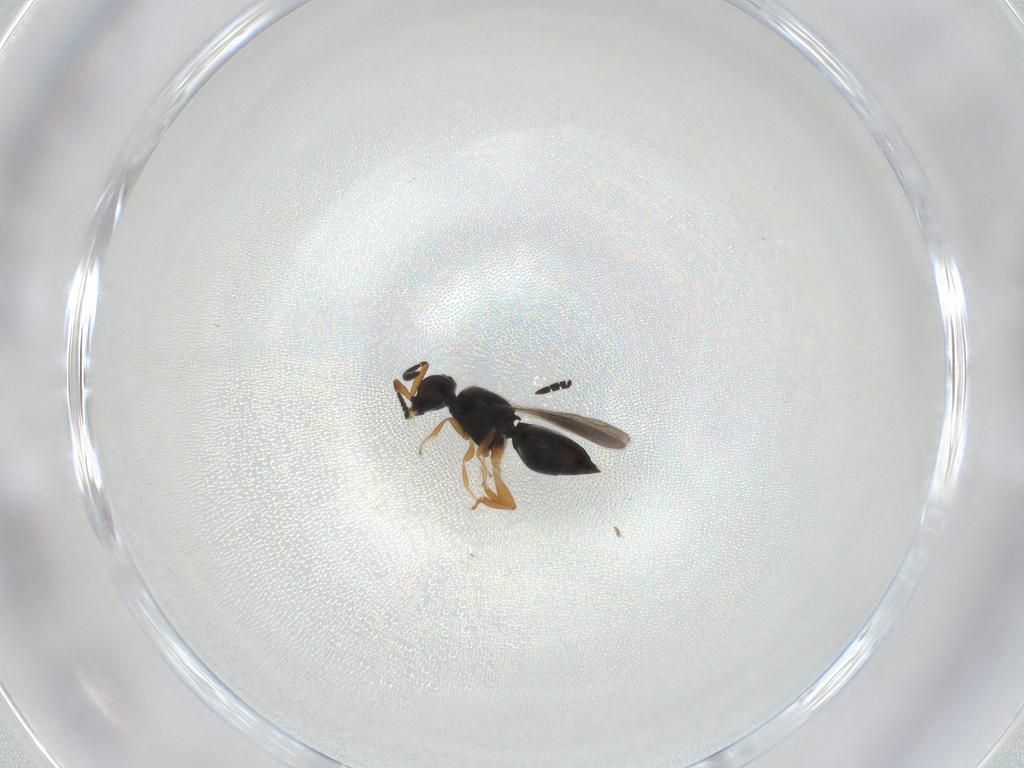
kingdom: Animalia
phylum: Arthropoda
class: Insecta
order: Hymenoptera
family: Ceraphronidae
